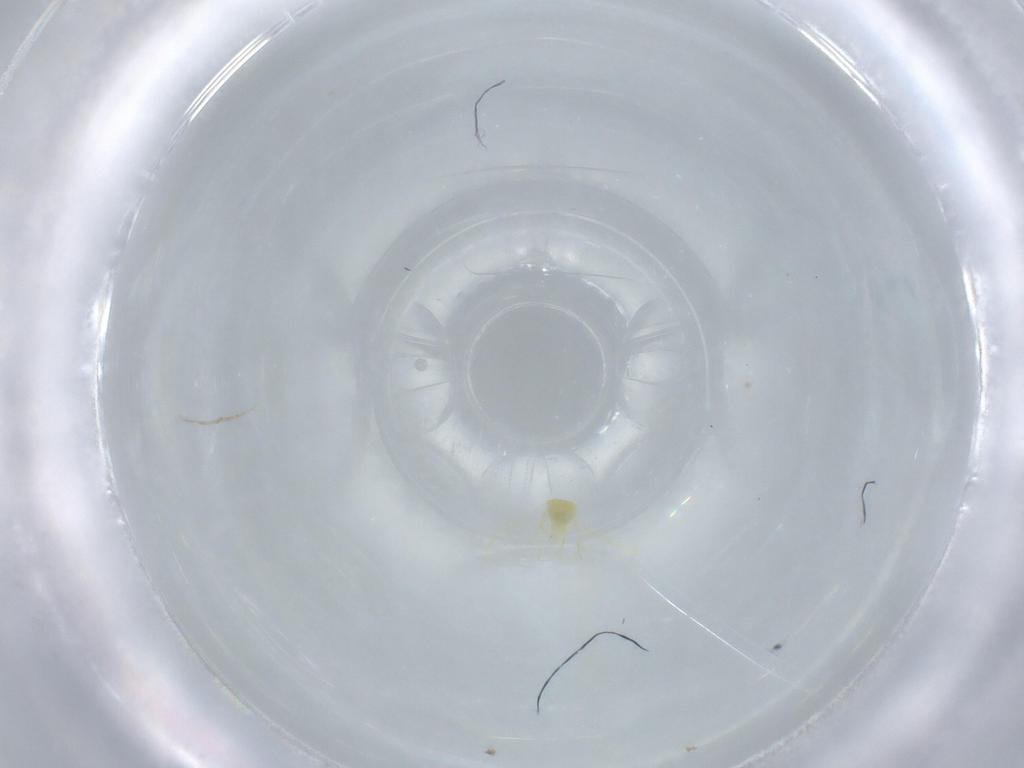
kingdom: Animalia
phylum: Arthropoda
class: Insecta
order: Hemiptera
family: Aleyrodidae
